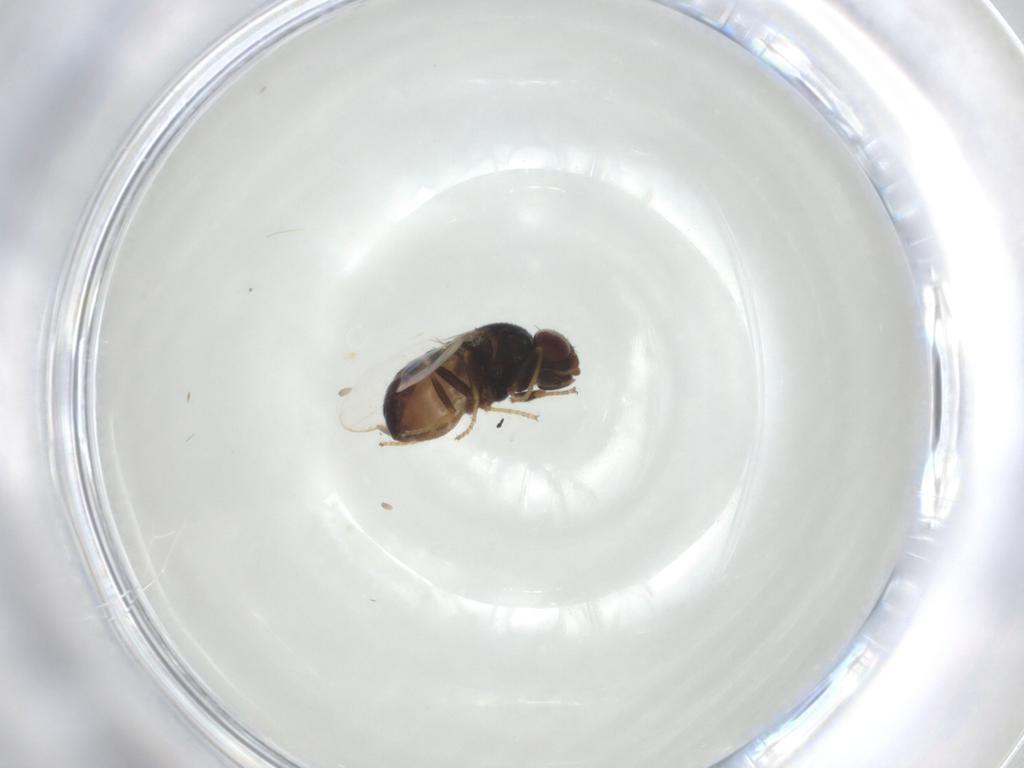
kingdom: Animalia
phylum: Arthropoda
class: Insecta
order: Diptera
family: Chloropidae
